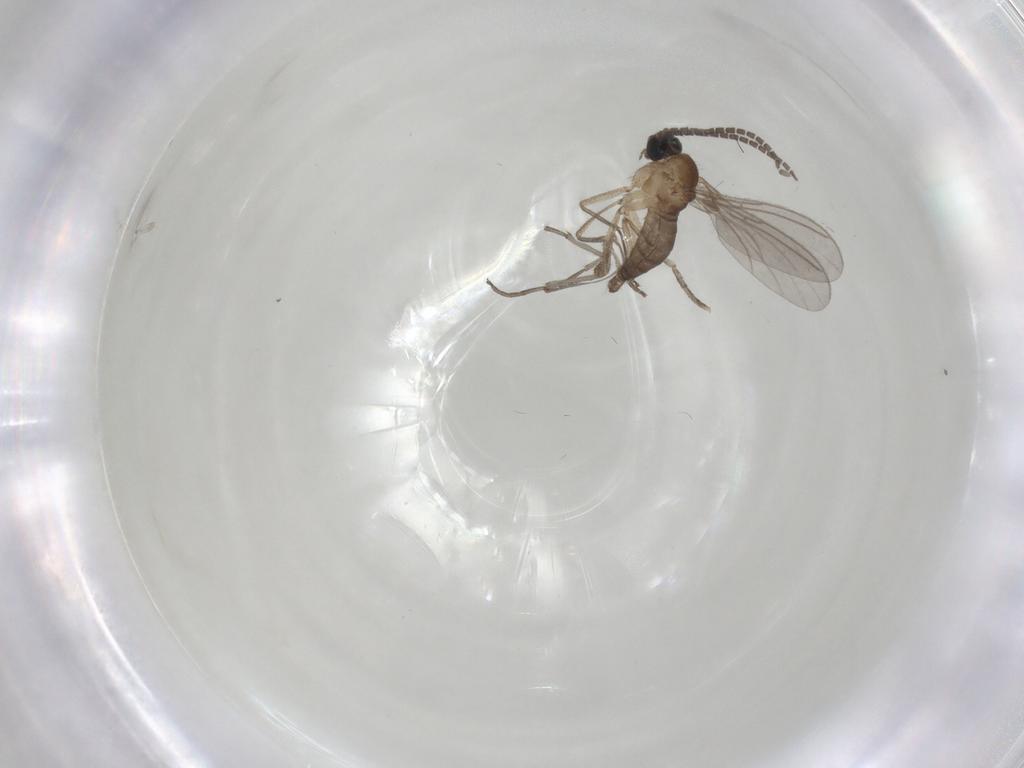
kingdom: Animalia
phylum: Arthropoda
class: Insecta
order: Diptera
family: Sciaridae
